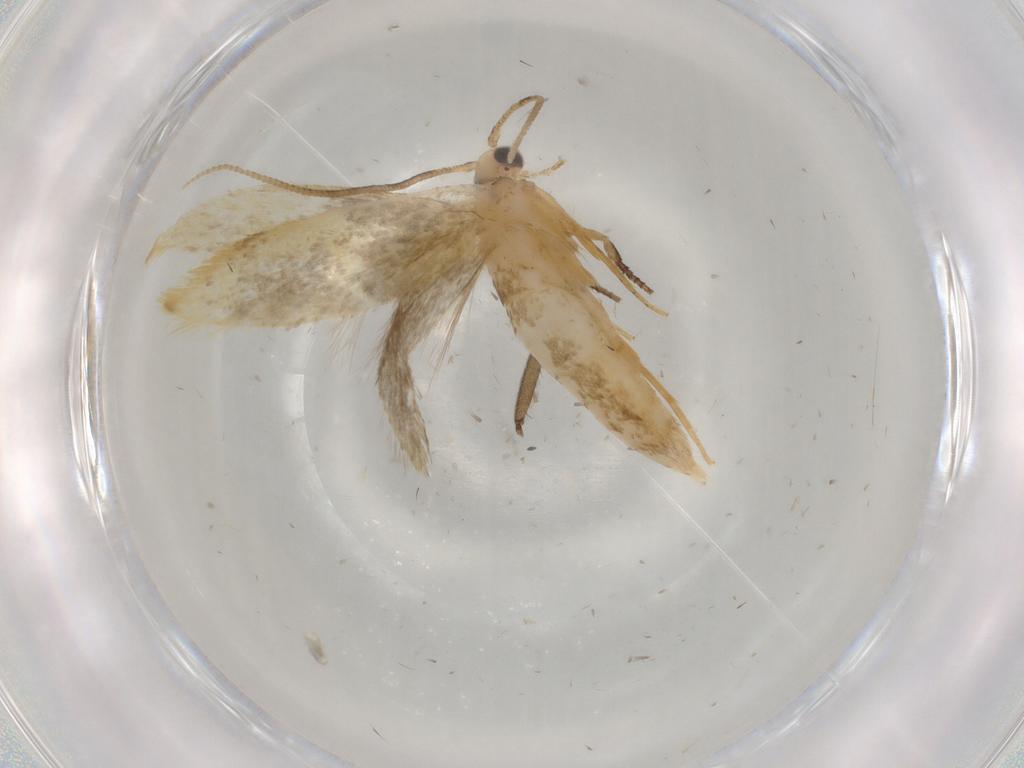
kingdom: Animalia
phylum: Arthropoda
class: Insecta
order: Lepidoptera
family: Tineidae
